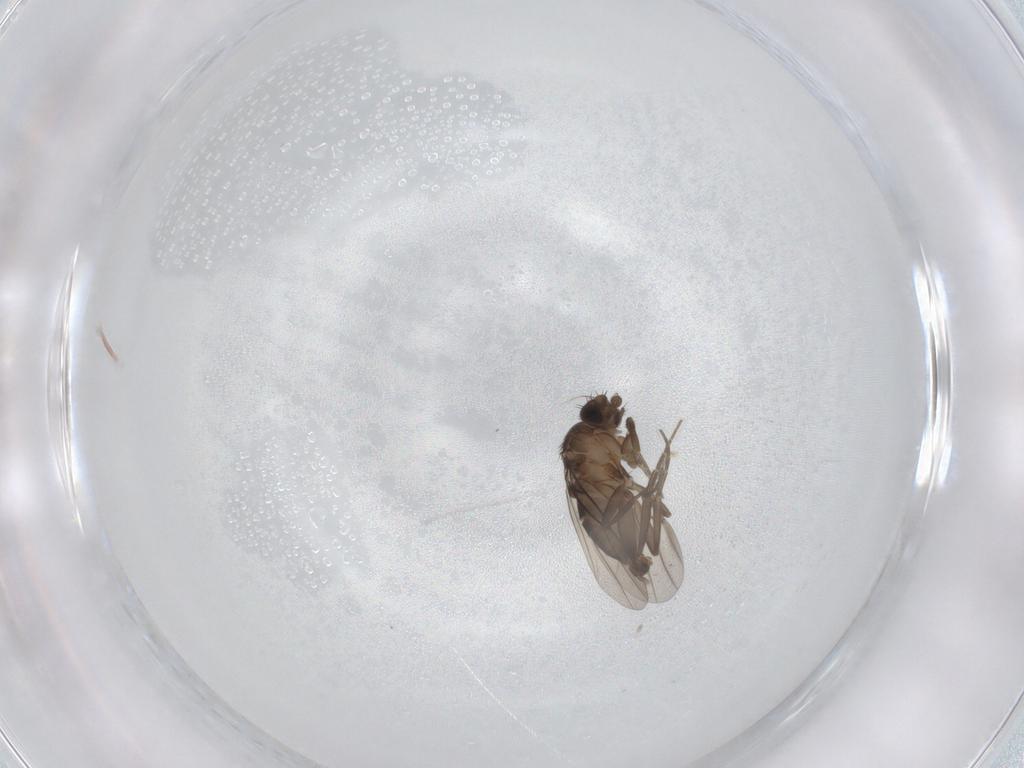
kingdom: Animalia
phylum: Arthropoda
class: Insecta
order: Diptera
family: Phoridae
